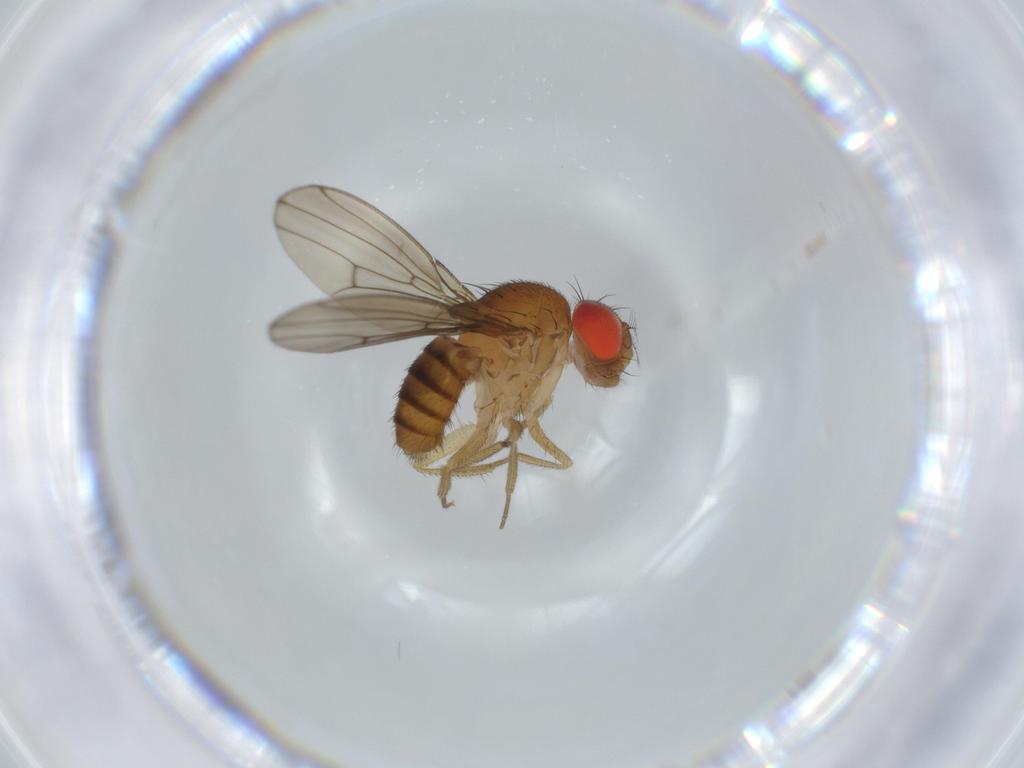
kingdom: Animalia
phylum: Arthropoda
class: Insecta
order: Diptera
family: Drosophilidae
